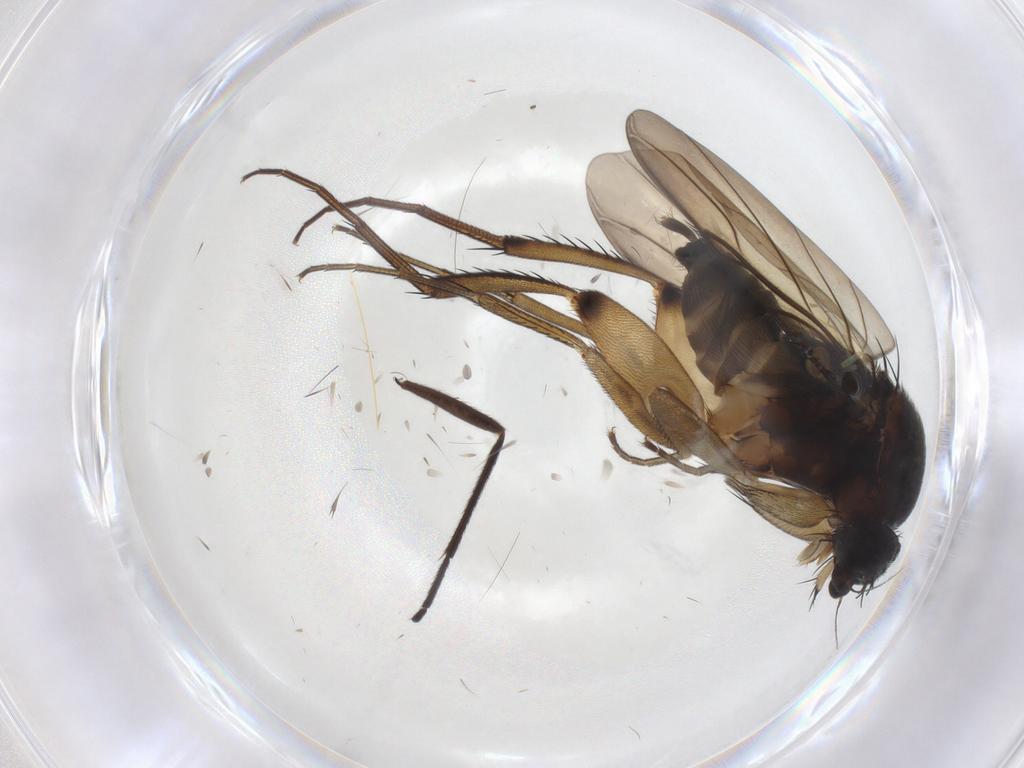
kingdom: Animalia
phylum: Arthropoda
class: Insecta
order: Diptera
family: Phoridae
